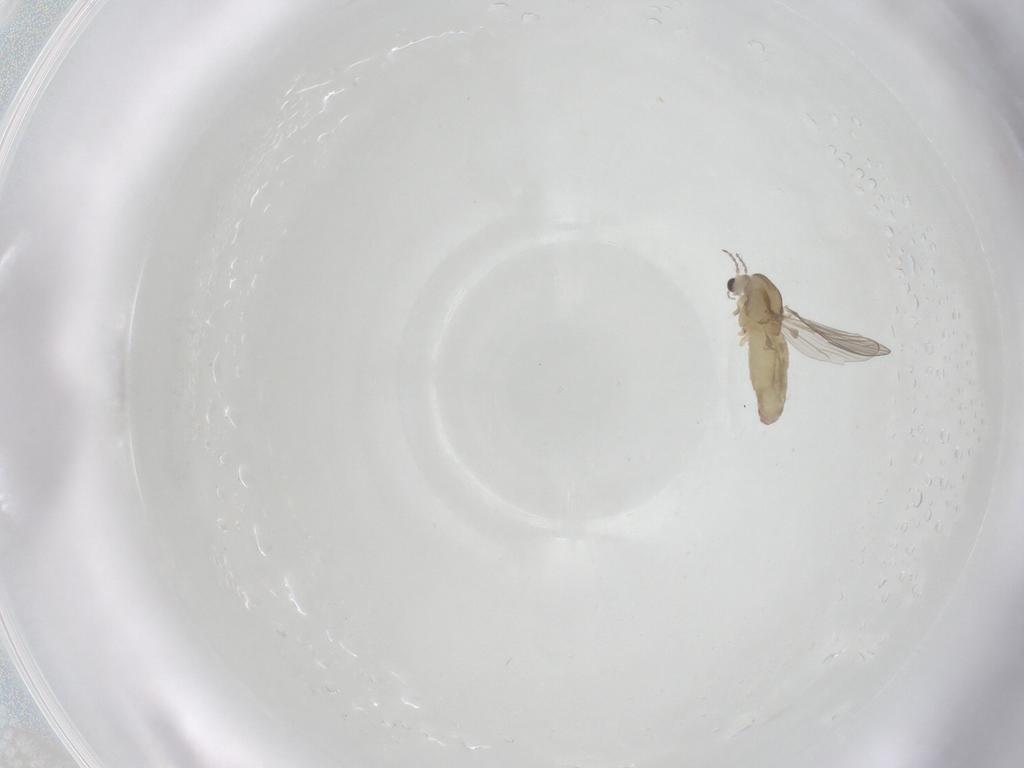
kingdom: Animalia
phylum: Arthropoda
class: Insecta
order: Diptera
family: Chironomidae
